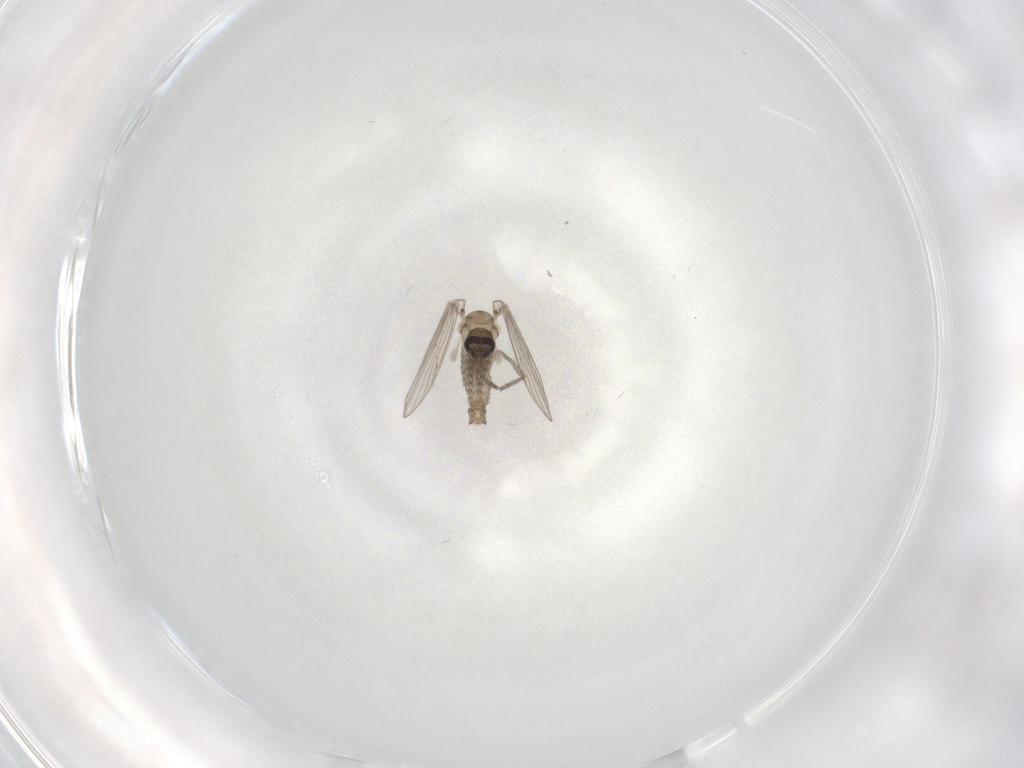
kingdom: Animalia
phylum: Arthropoda
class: Insecta
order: Diptera
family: Psychodidae
